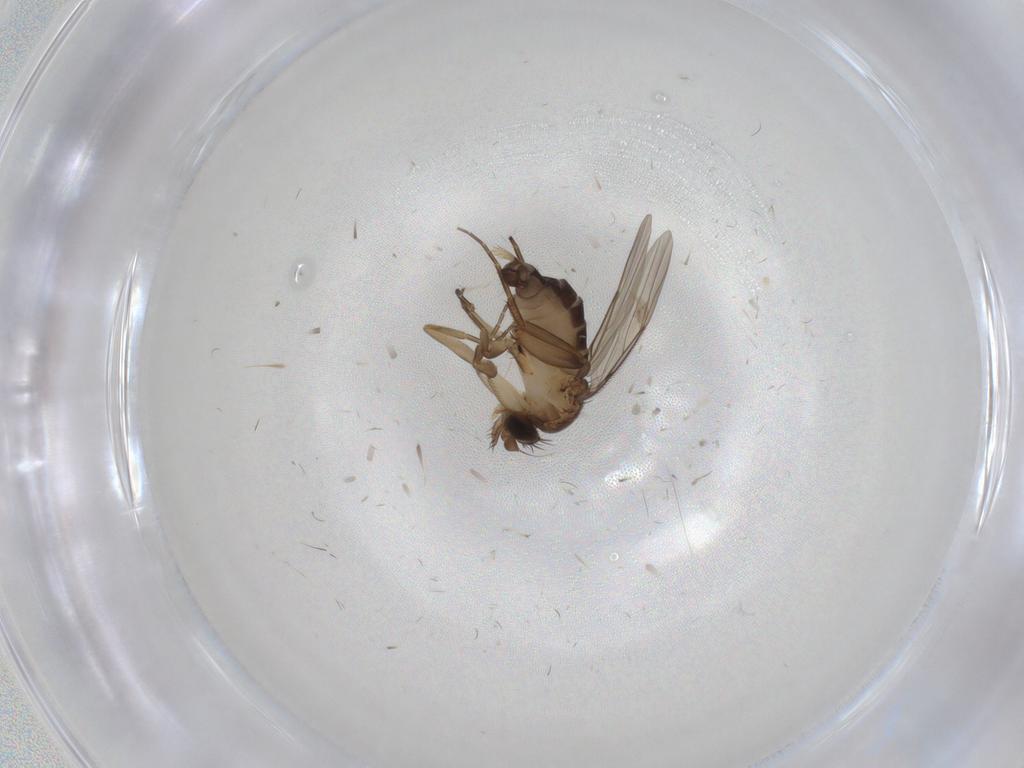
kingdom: Animalia
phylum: Arthropoda
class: Insecta
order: Diptera
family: Phoridae
